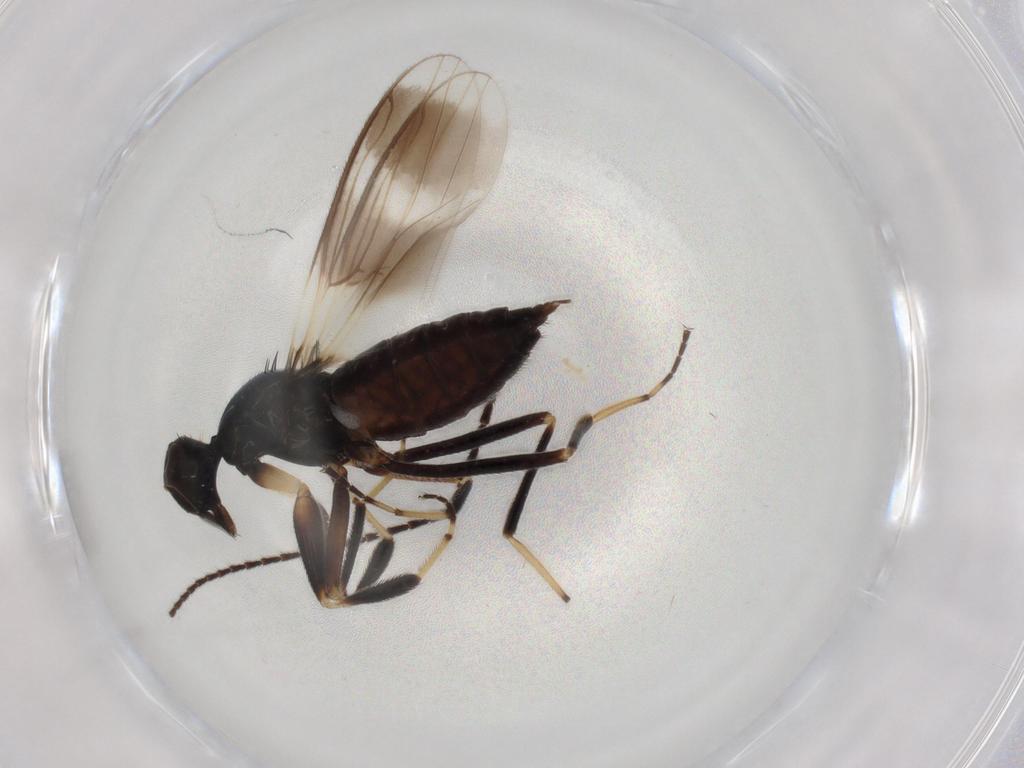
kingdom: Animalia
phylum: Arthropoda
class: Insecta
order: Diptera
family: Hybotidae
